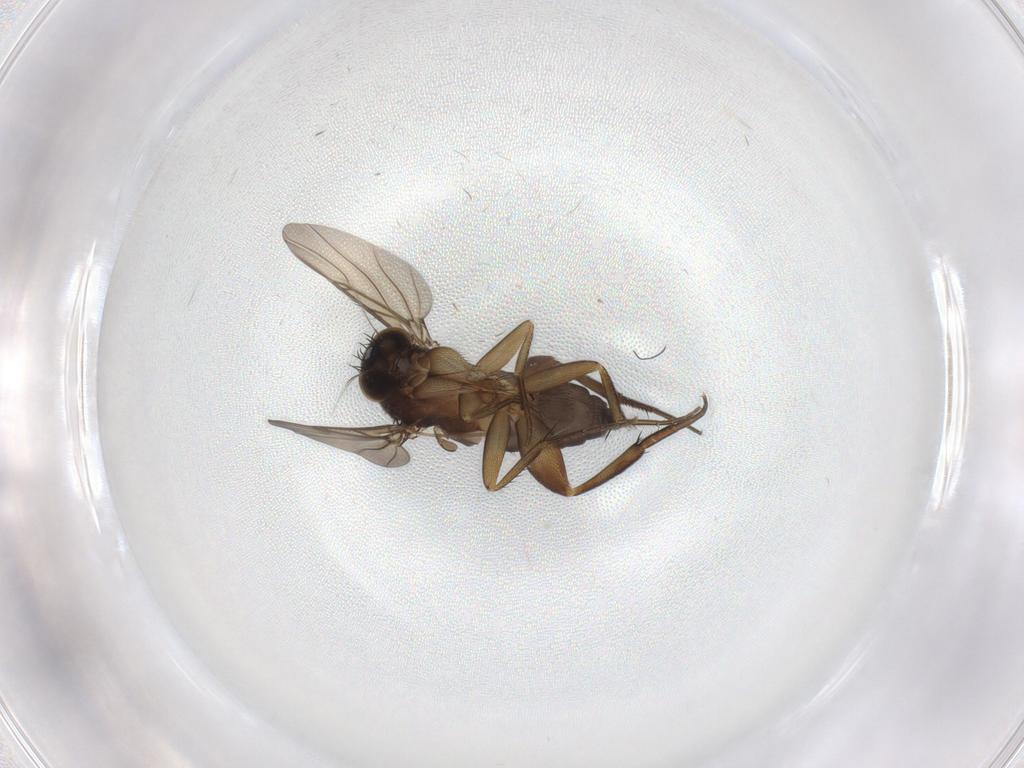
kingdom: Animalia
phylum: Arthropoda
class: Insecta
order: Diptera
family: Phoridae
